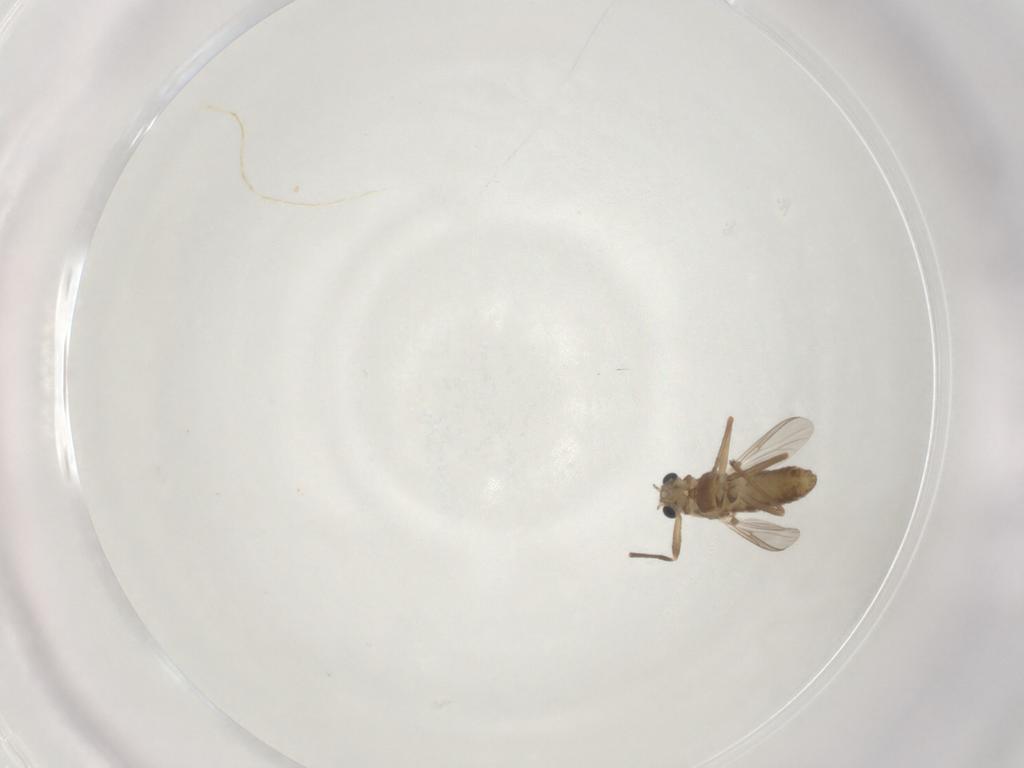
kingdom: Animalia
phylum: Arthropoda
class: Insecta
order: Diptera
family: Chironomidae
